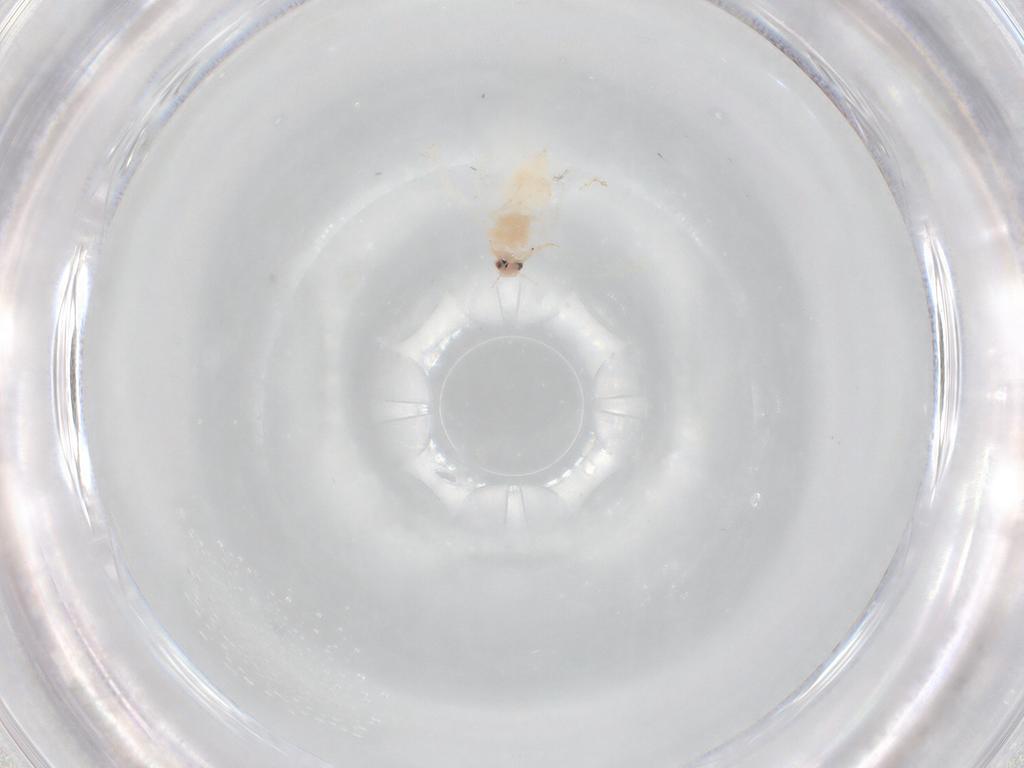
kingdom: Animalia
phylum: Arthropoda
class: Insecta
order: Hemiptera
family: Aleyrodidae
